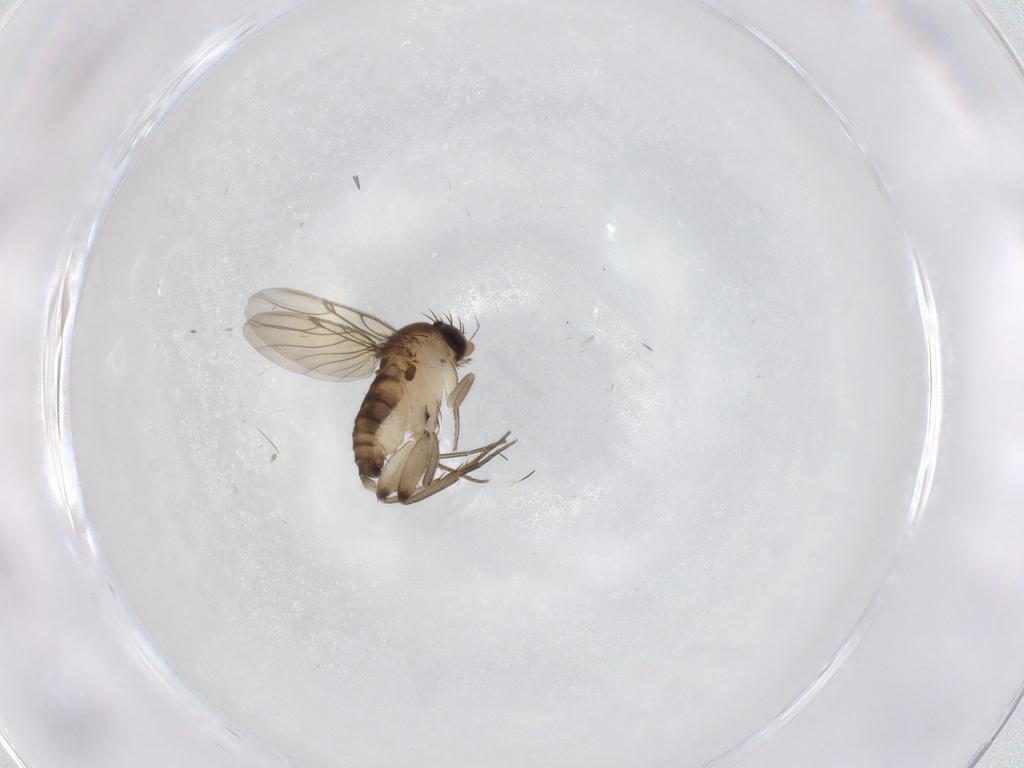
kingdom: Animalia
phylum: Arthropoda
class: Insecta
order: Diptera
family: Phoridae
